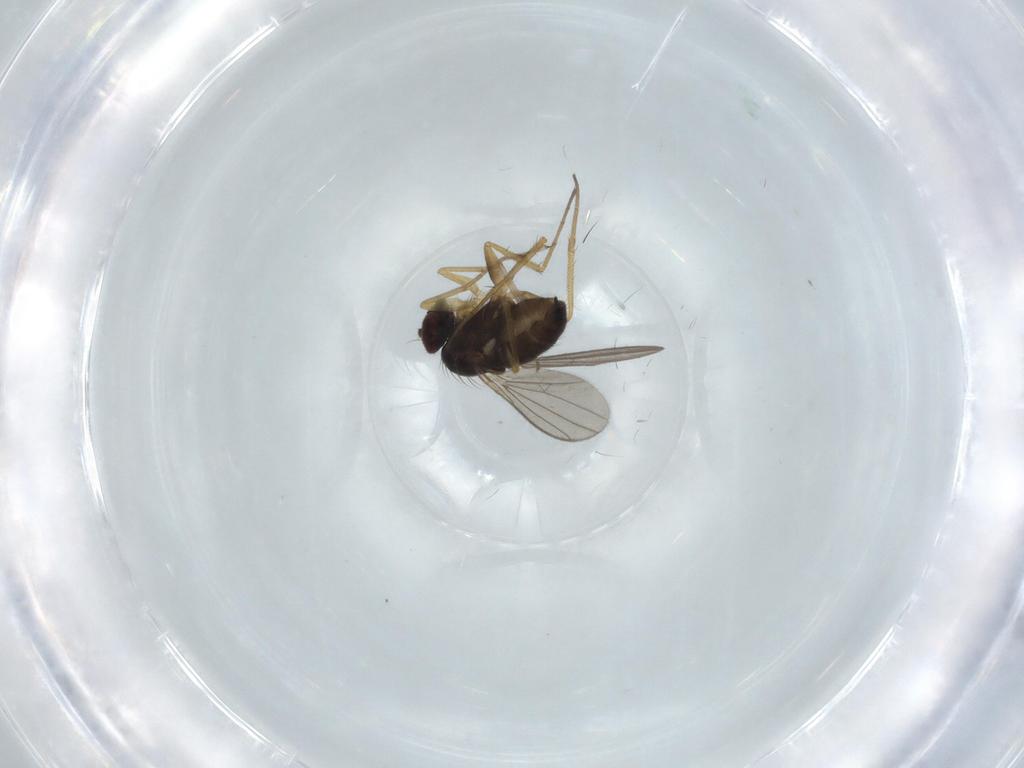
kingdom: Animalia
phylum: Arthropoda
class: Insecta
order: Diptera
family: Dolichopodidae
